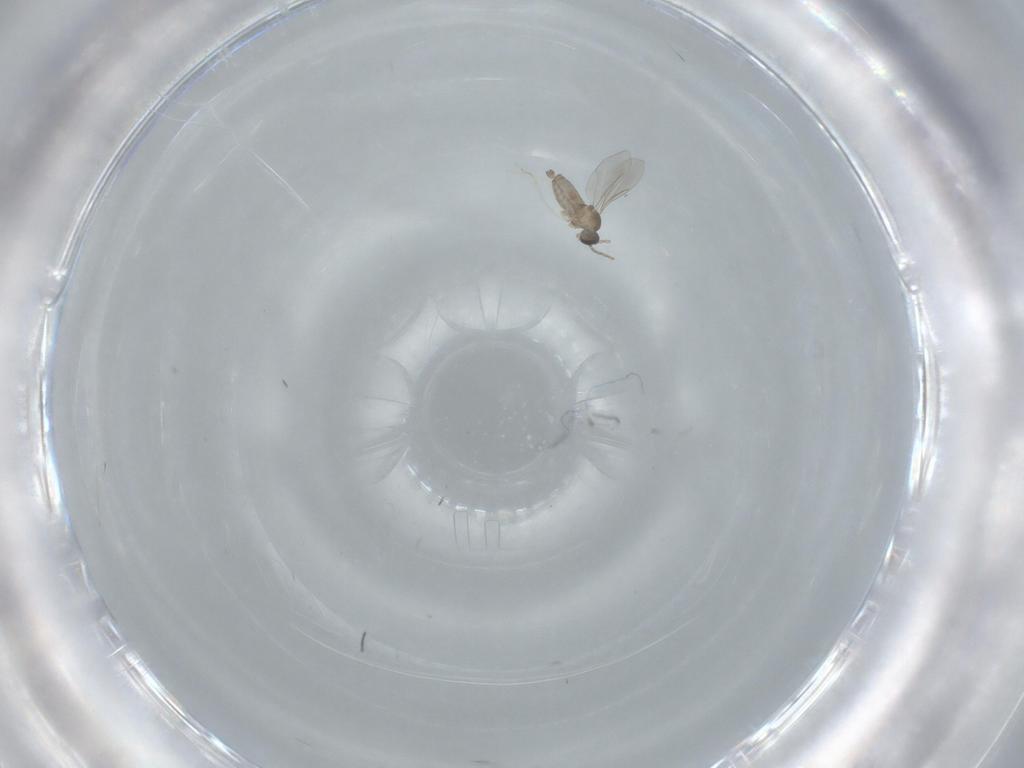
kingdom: Animalia
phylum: Arthropoda
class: Insecta
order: Diptera
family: Cecidomyiidae
